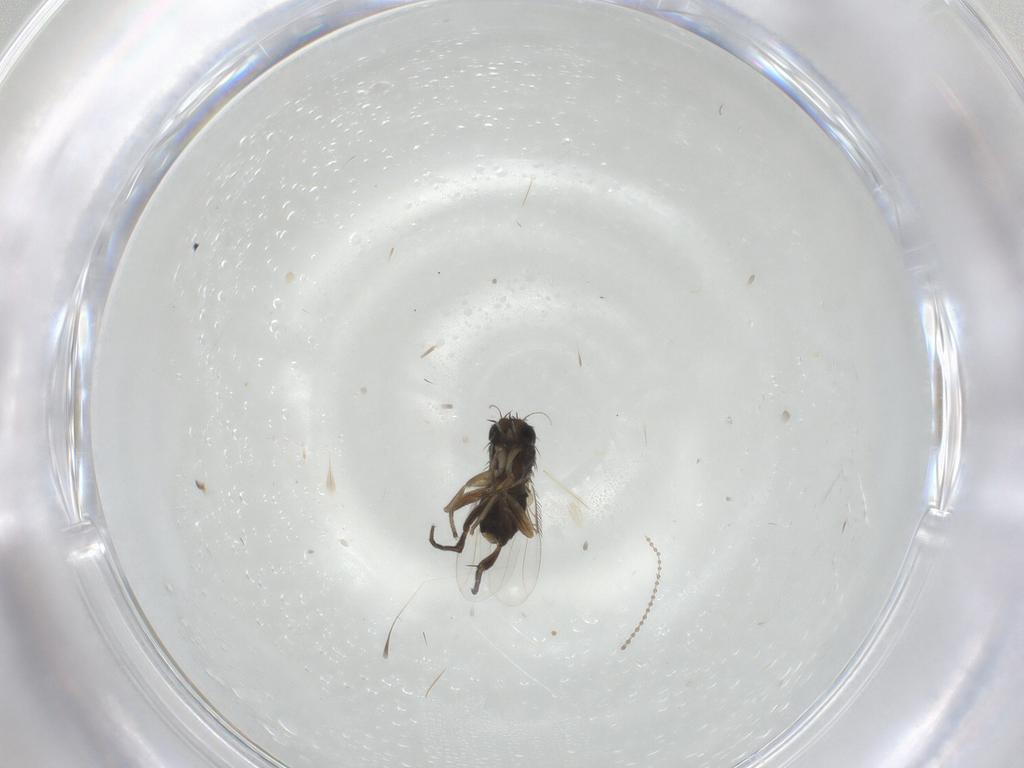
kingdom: Animalia
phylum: Arthropoda
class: Insecta
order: Diptera
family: Phoridae
